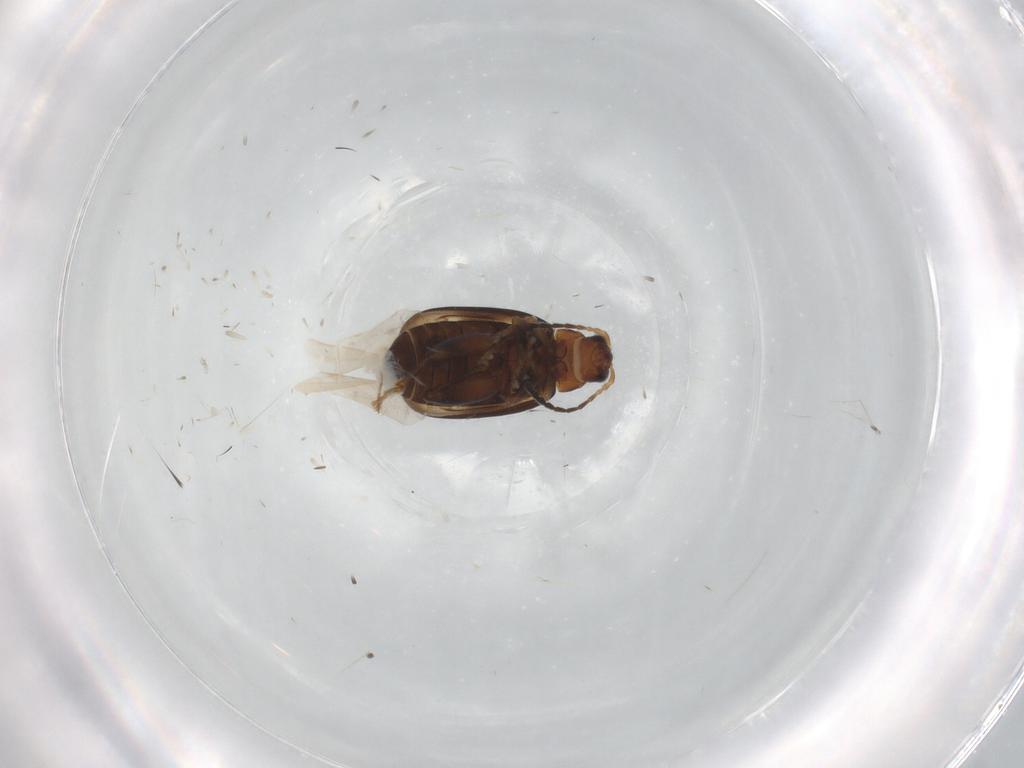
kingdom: Animalia
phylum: Arthropoda
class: Insecta
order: Coleoptera
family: Chrysomelidae
